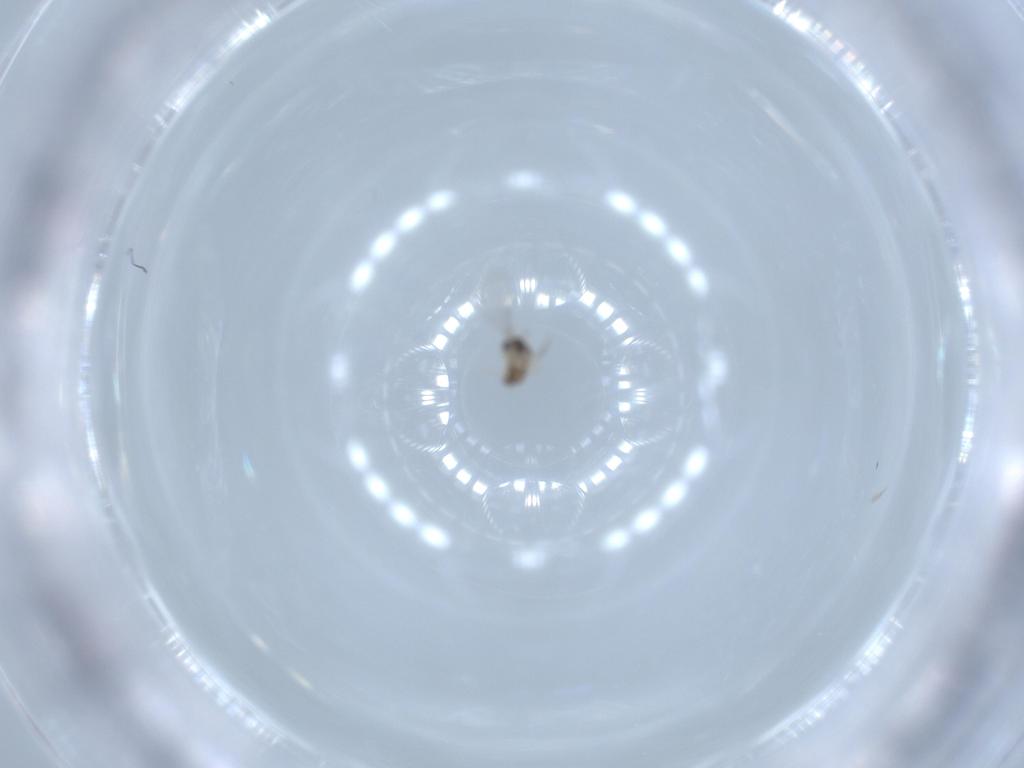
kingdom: Animalia
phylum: Arthropoda
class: Insecta
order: Diptera
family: Cecidomyiidae
